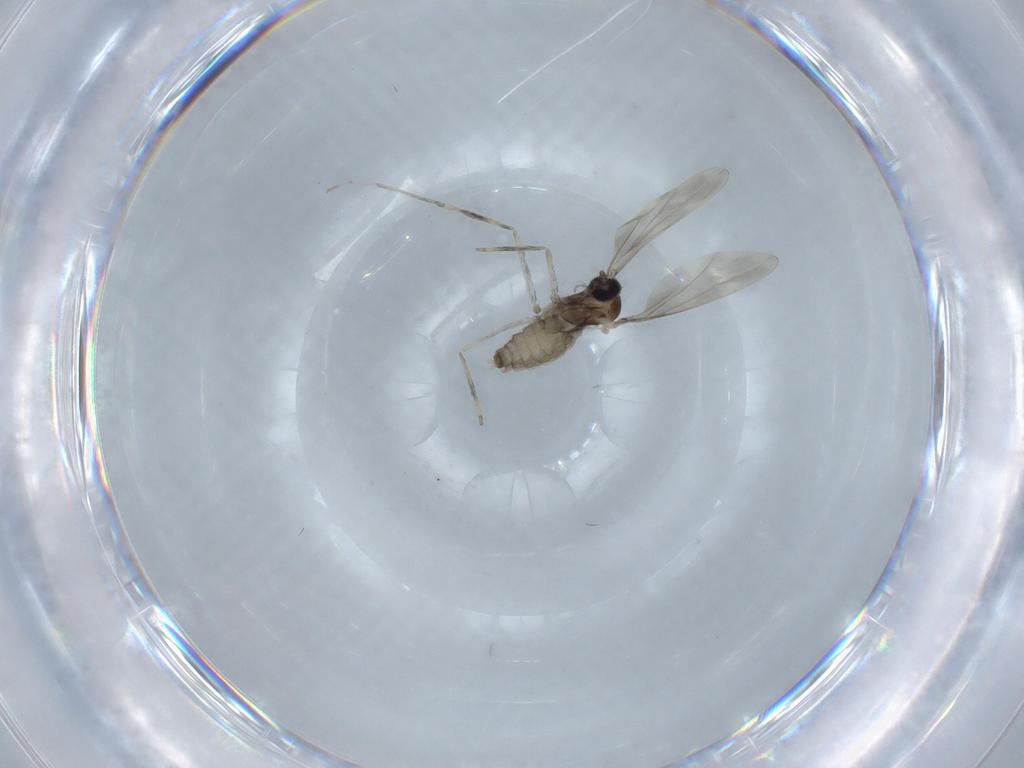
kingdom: Animalia
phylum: Arthropoda
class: Insecta
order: Diptera
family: Cecidomyiidae
